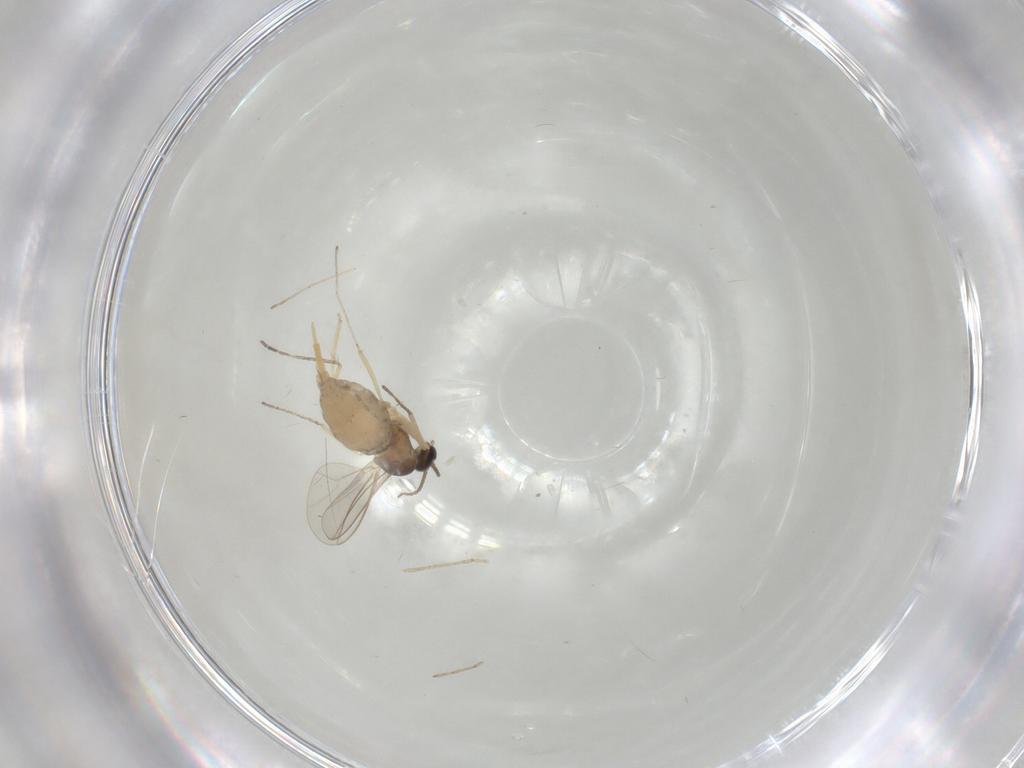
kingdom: Animalia
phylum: Arthropoda
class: Insecta
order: Diptera
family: Cecidomyiidae
